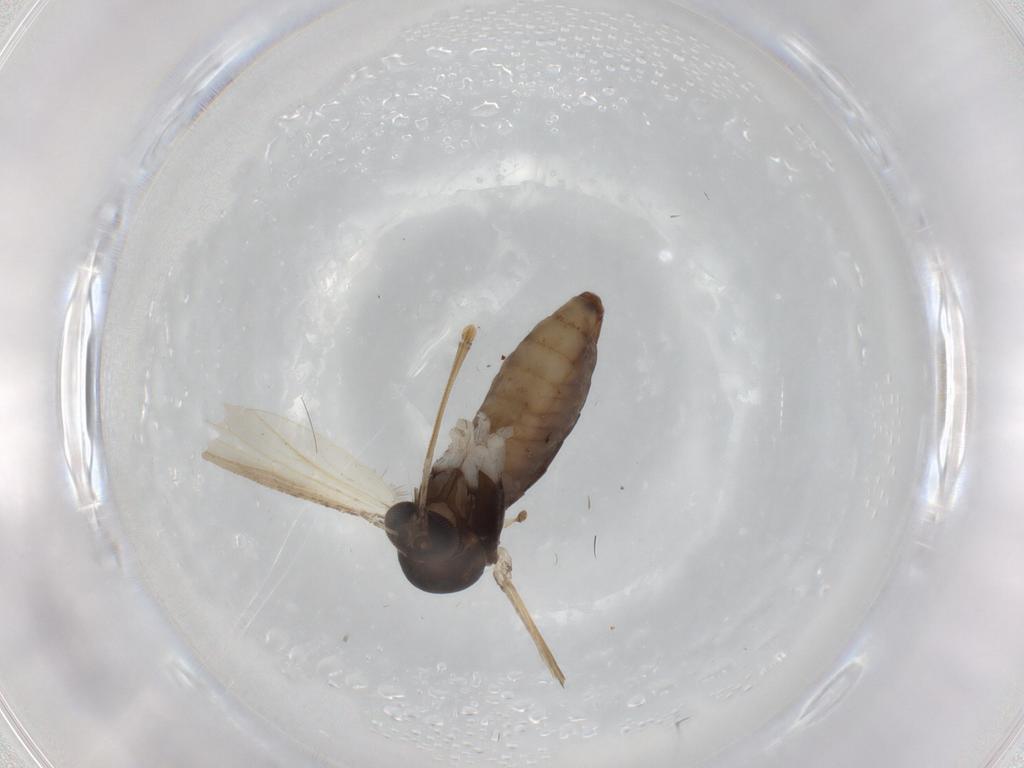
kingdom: Animalia
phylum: Arthropoda
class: Insecta
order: Diptera
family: Culicidae
